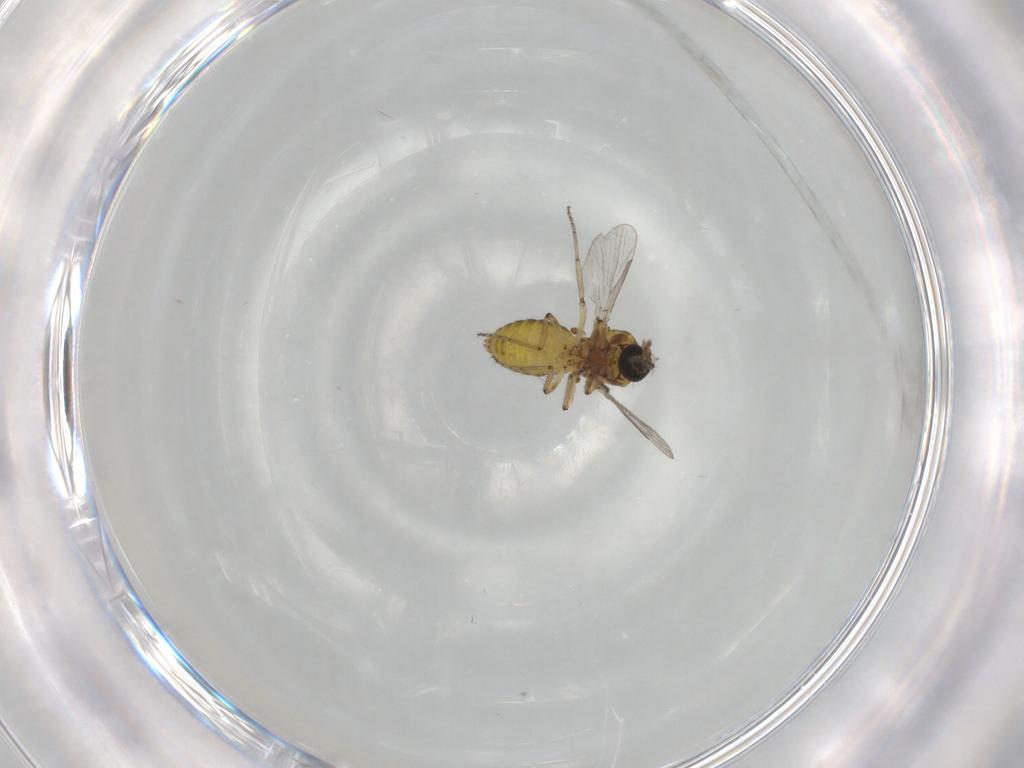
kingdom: Animalia
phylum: Arthropoda
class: Insecta
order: Diptera
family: Ceratopogonidae
